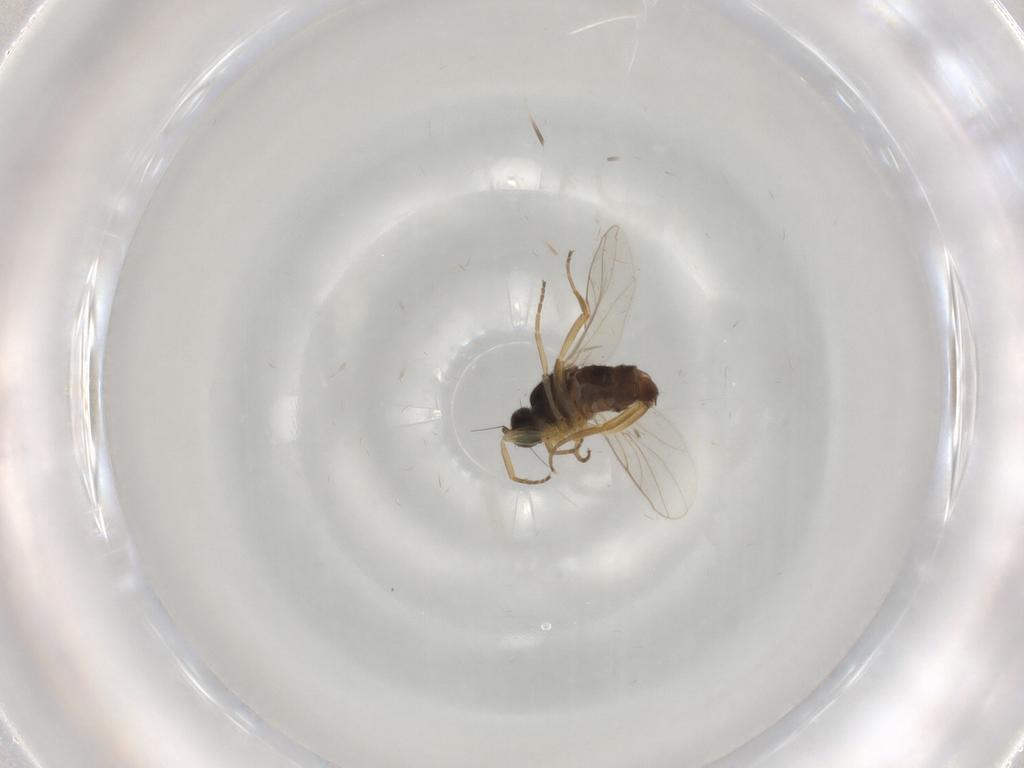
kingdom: Animalia
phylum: Arthropoda
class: Insecta
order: Diptera
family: Hybotidae
